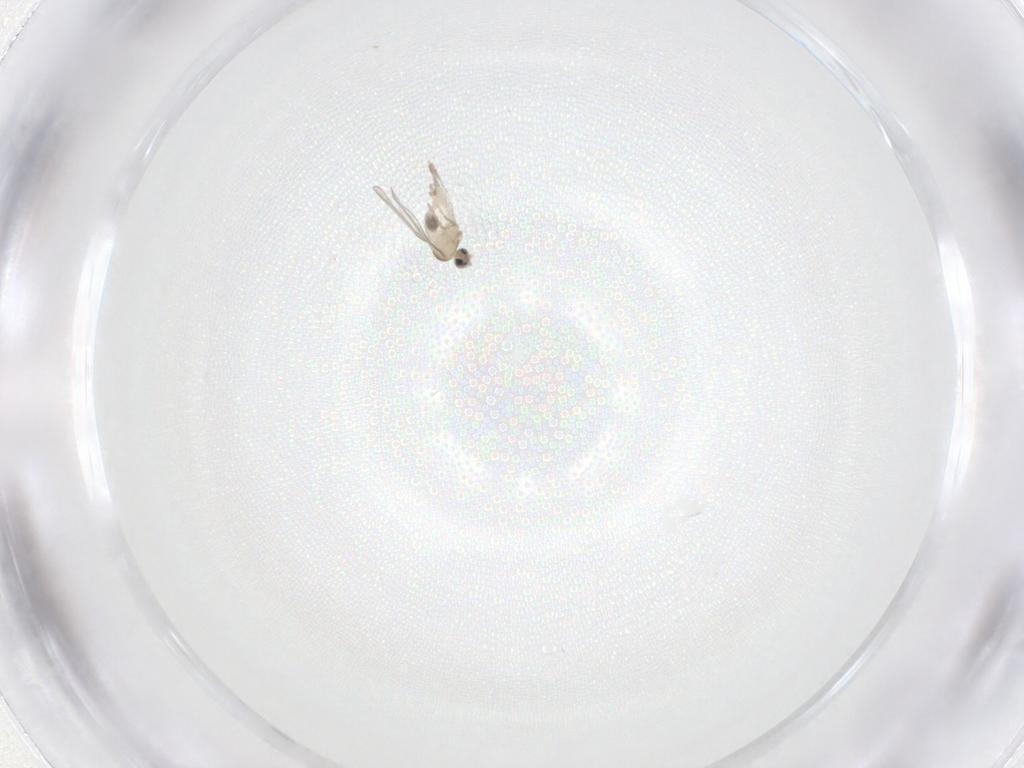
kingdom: Animalia
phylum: Arthropoda
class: Insecta
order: Diptera
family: Cecidomyiidae
